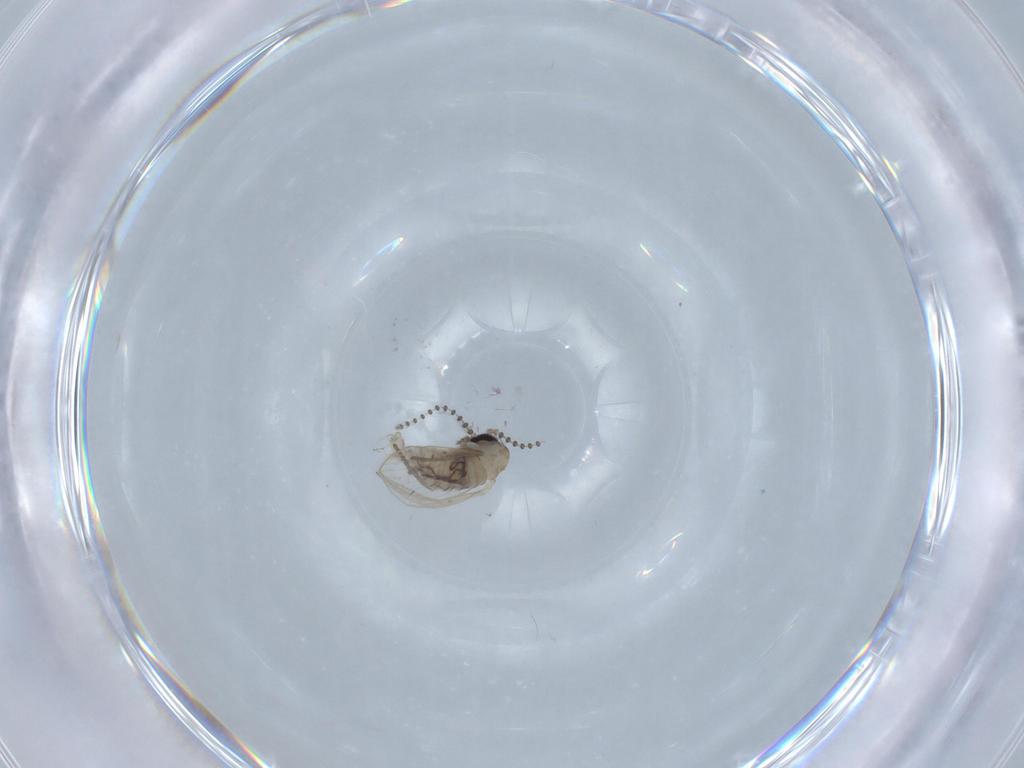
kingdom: Animalia
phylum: Arthropoda
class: Insecta
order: Diptera
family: Psychodidae
